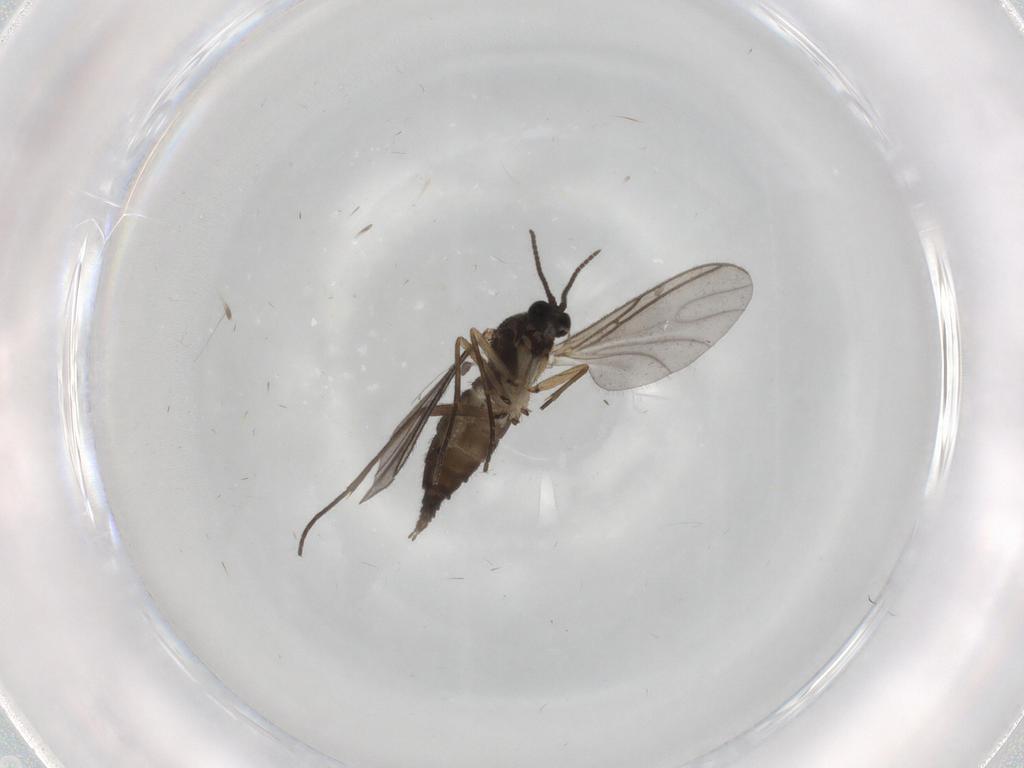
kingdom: Animalia
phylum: Arthropoda
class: Insecta
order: Diptera
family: Sciaridae
